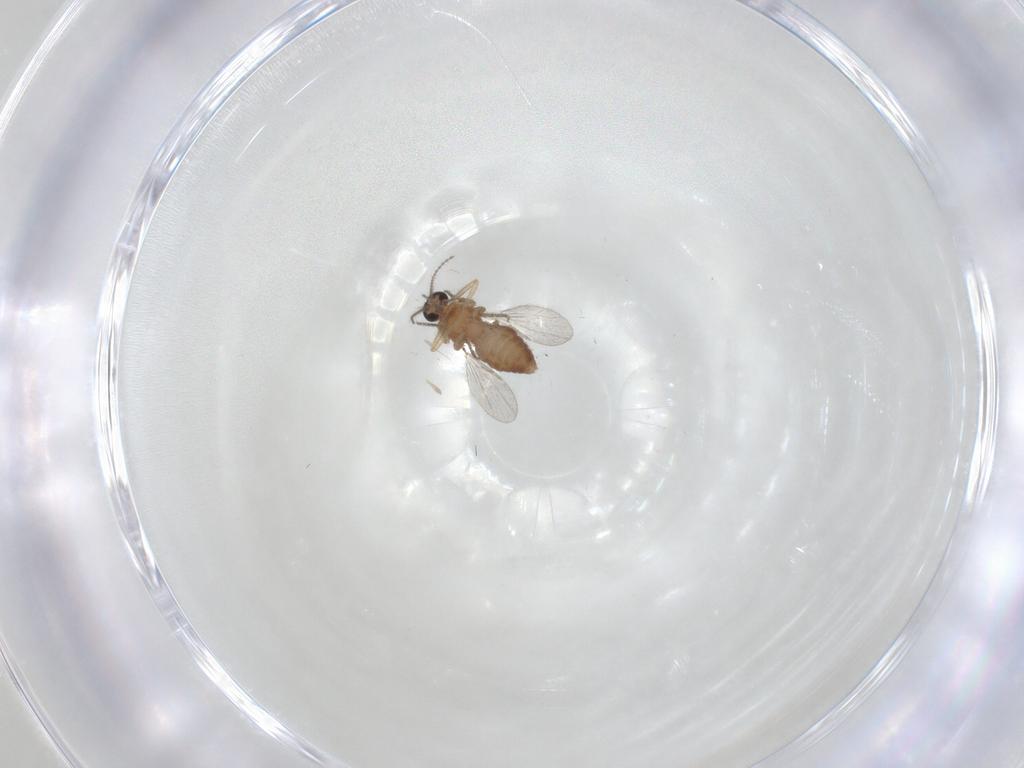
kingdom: Animalia
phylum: Arthropoda
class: Insecta
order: Diptera
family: Ceratopogonidae
